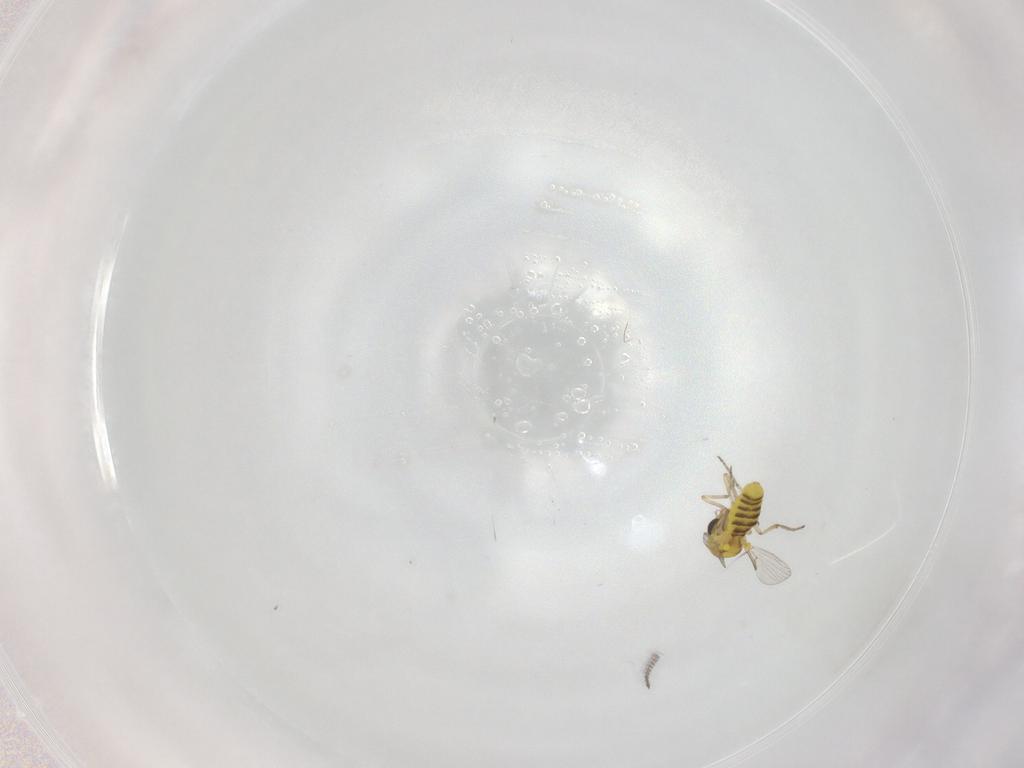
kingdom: Animalia
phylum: Arthropoda
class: Insecta
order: Diptera
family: Ceratopogonidae
